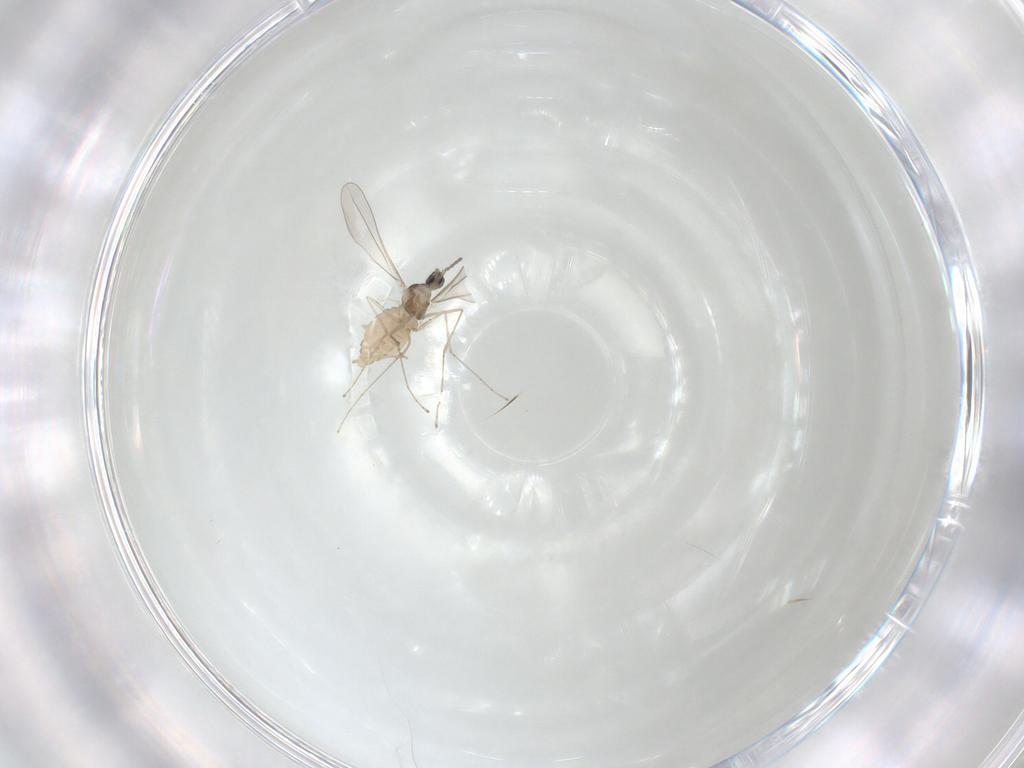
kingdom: Animalia
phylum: Arthropoda
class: Insecta
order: Diptera
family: Cecidomyiidae
